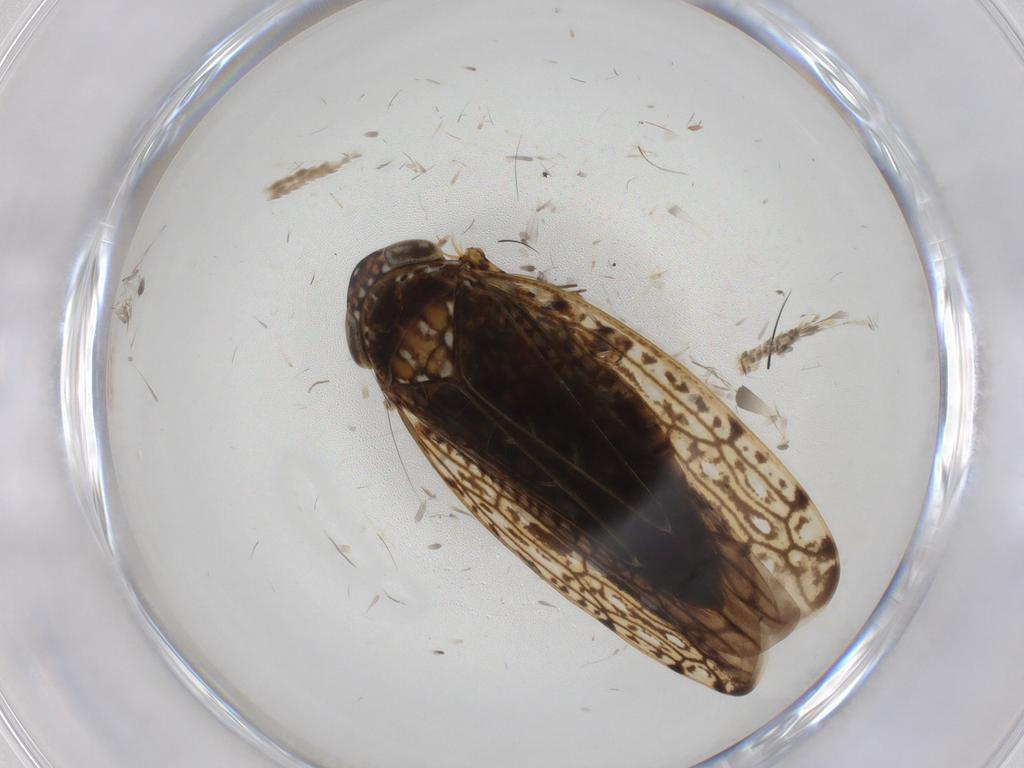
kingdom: Animalia
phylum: Arthropoda
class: Insecta
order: Hemiptera
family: Cicadellidae
